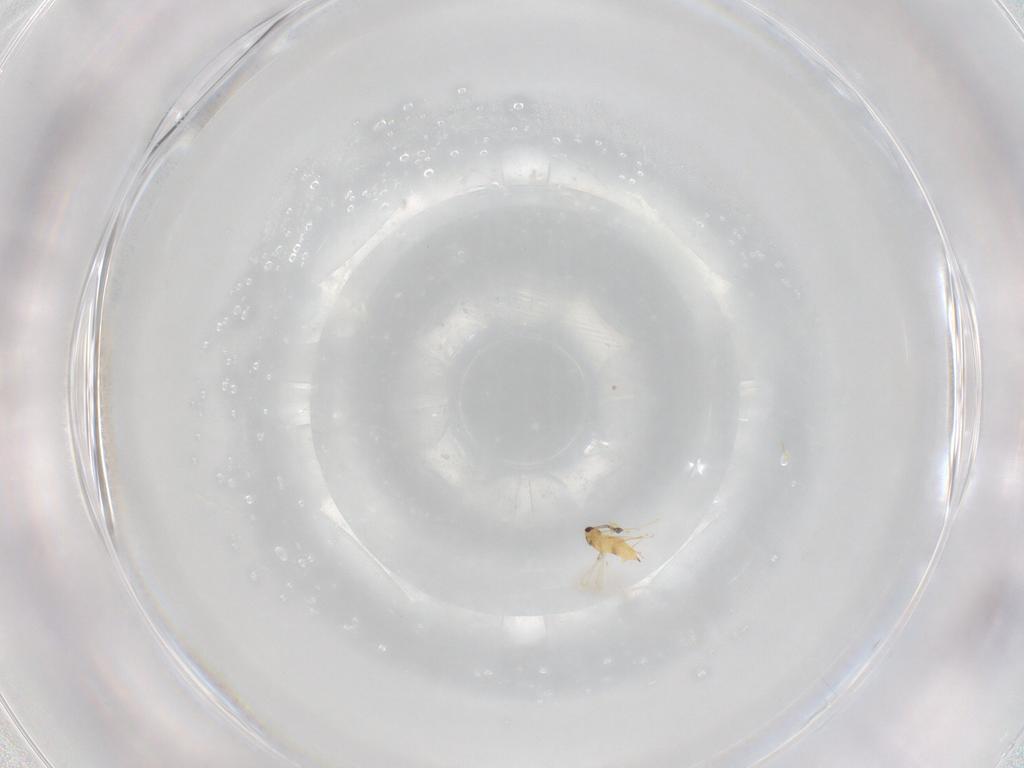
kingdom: Animalia
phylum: Arthropoda
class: Insecta
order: Hymenoptera
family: Mymaridae
